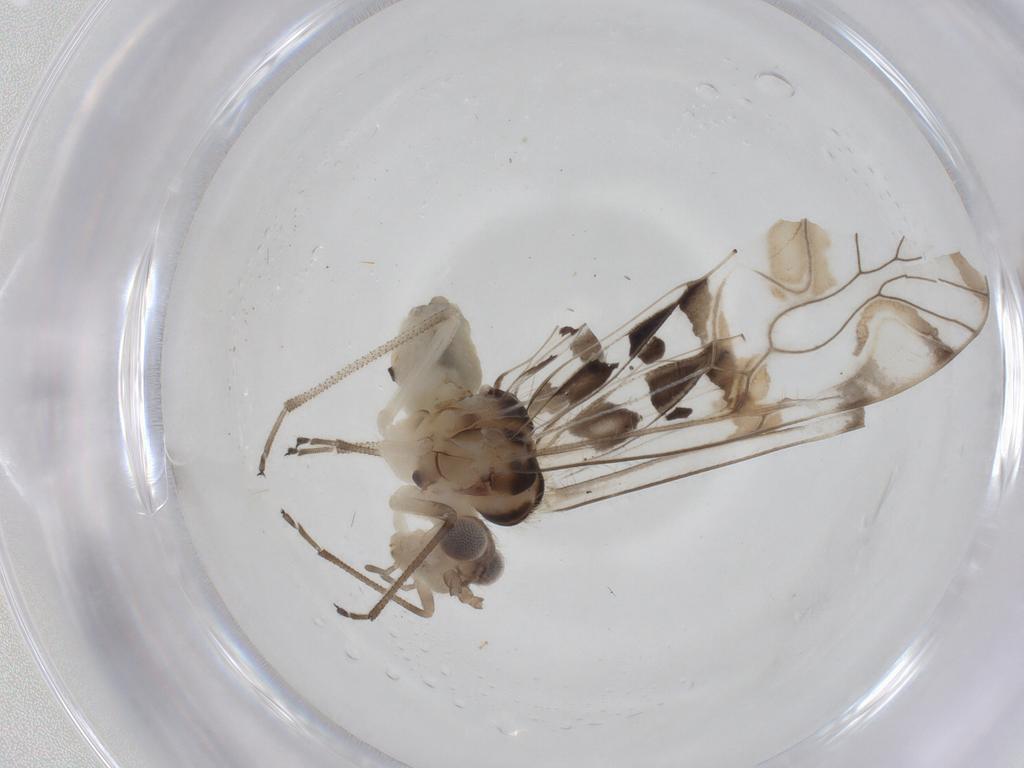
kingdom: Animalia
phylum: Arthropoda
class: Insecta
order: Psocodea
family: Amphipsocidae
